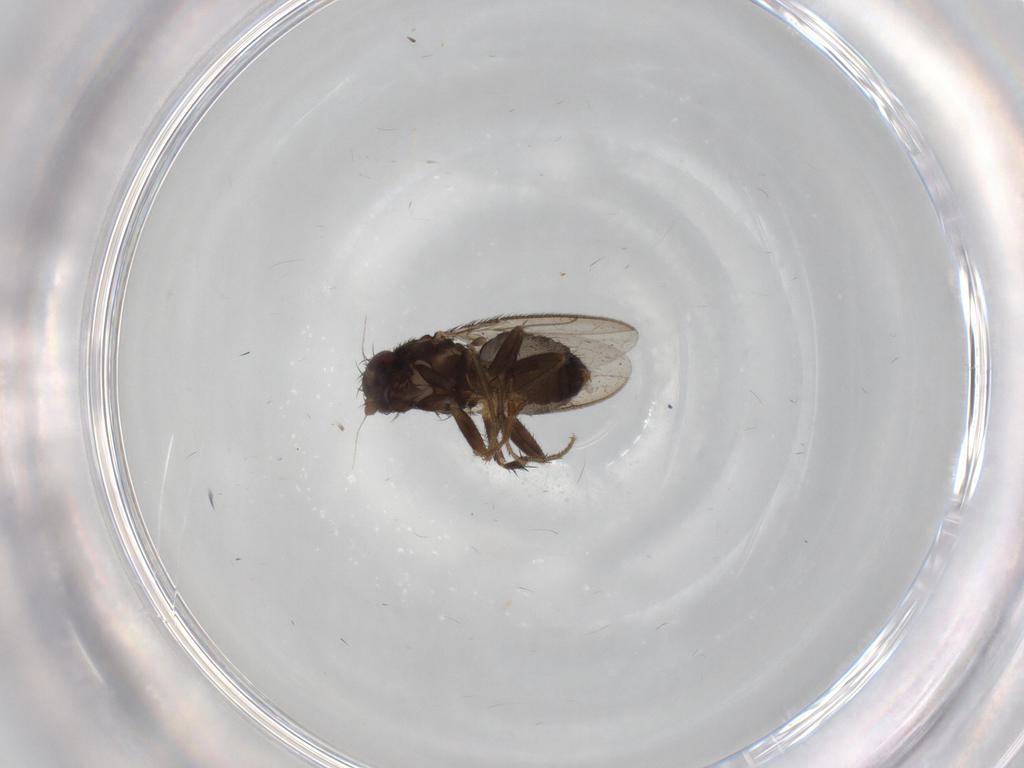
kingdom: Animalia
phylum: Arthropoda
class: Insecta
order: Diptera
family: Sphaeroceridae
